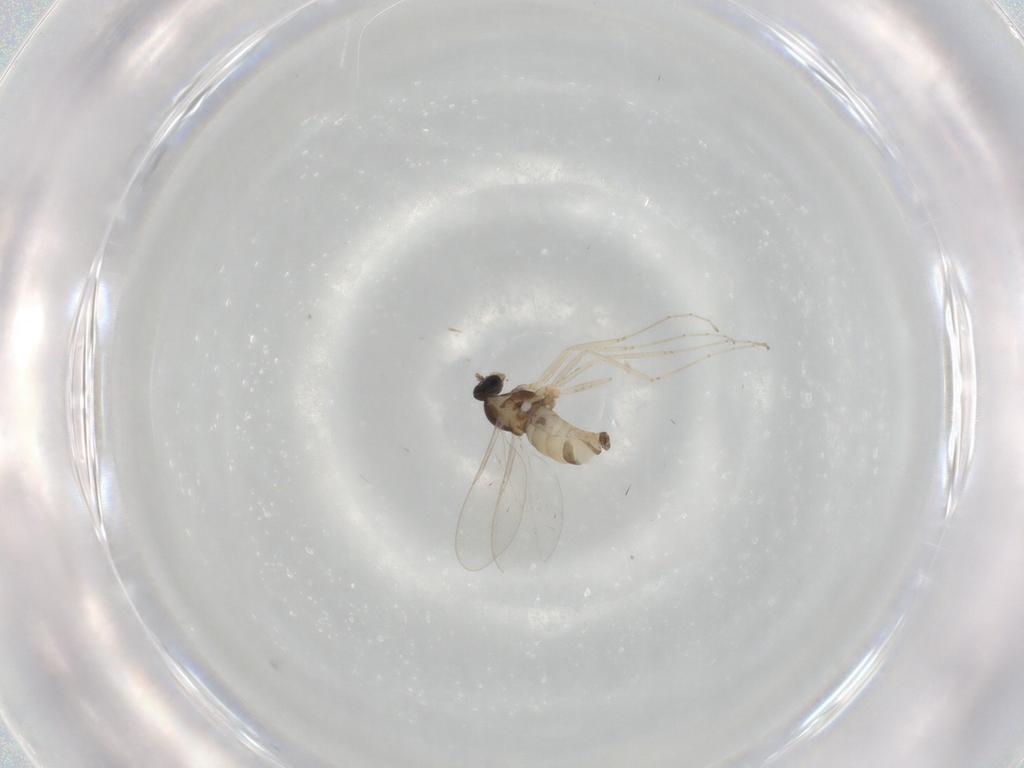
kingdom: Animalia
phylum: Arthropoda
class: Insecta
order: Diptera
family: Cecidomyiidae
